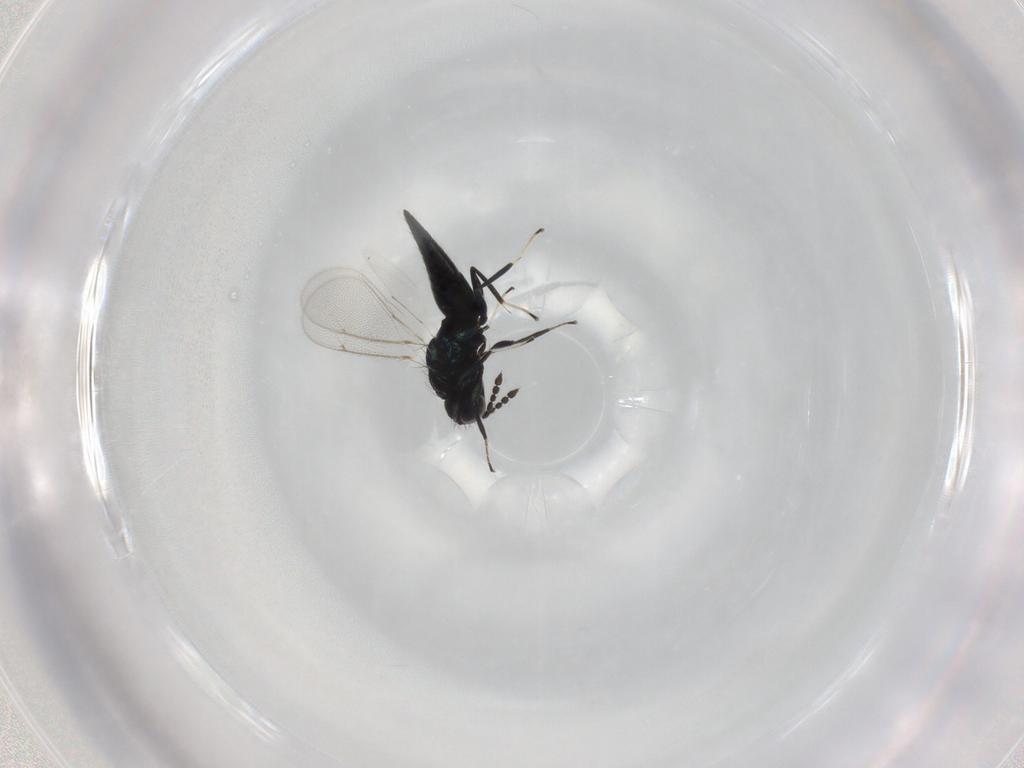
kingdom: Animalia
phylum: Arthropoda
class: Insecta
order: Hymenoptera
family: Eulophidae
